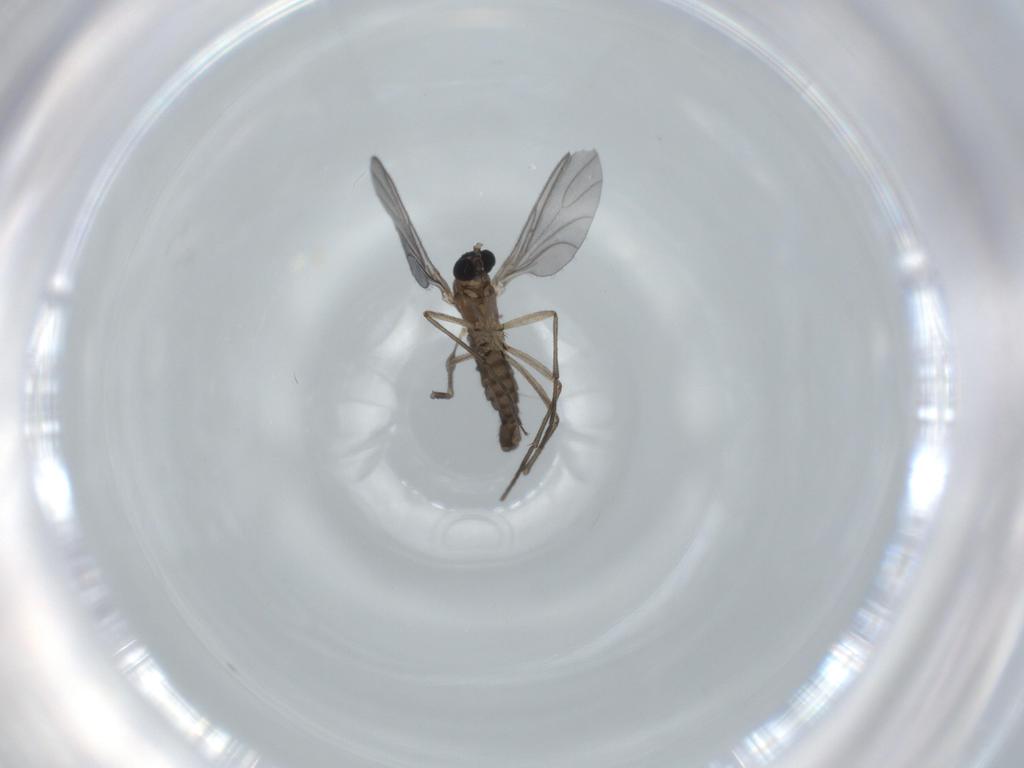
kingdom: Animalia
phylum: Arthropoda
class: Insecta
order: Diptera
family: Sciaridae
